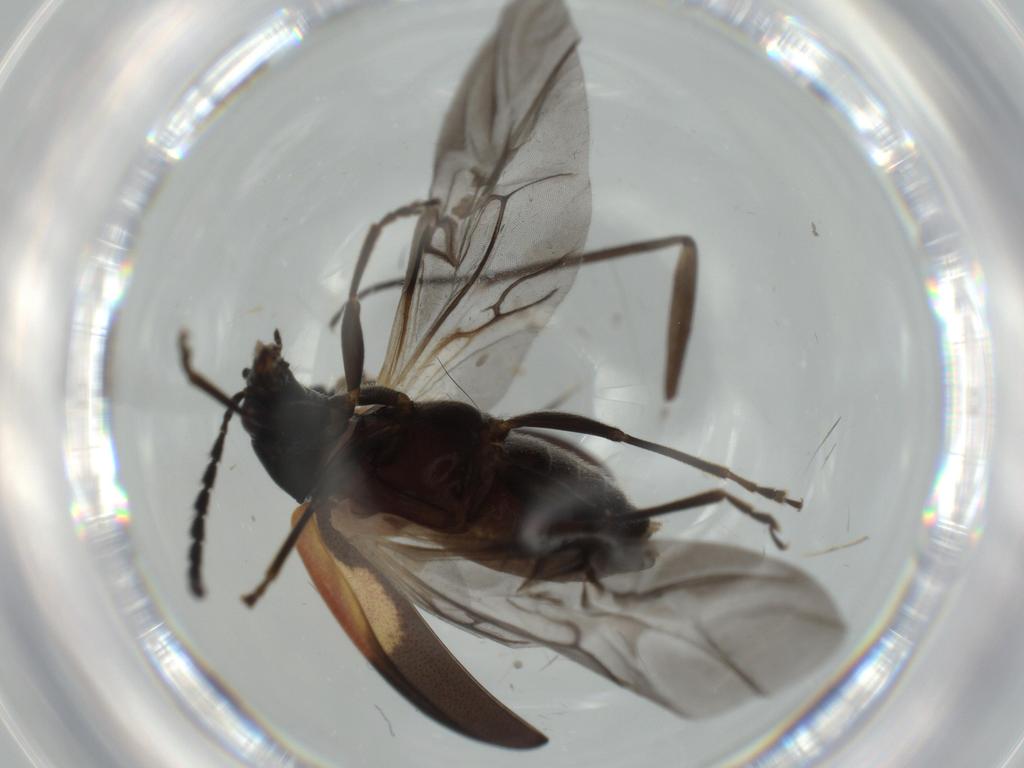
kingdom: Animalia
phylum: Arthropoda
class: Insecta
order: Coleoptera
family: Chrysomelidae
